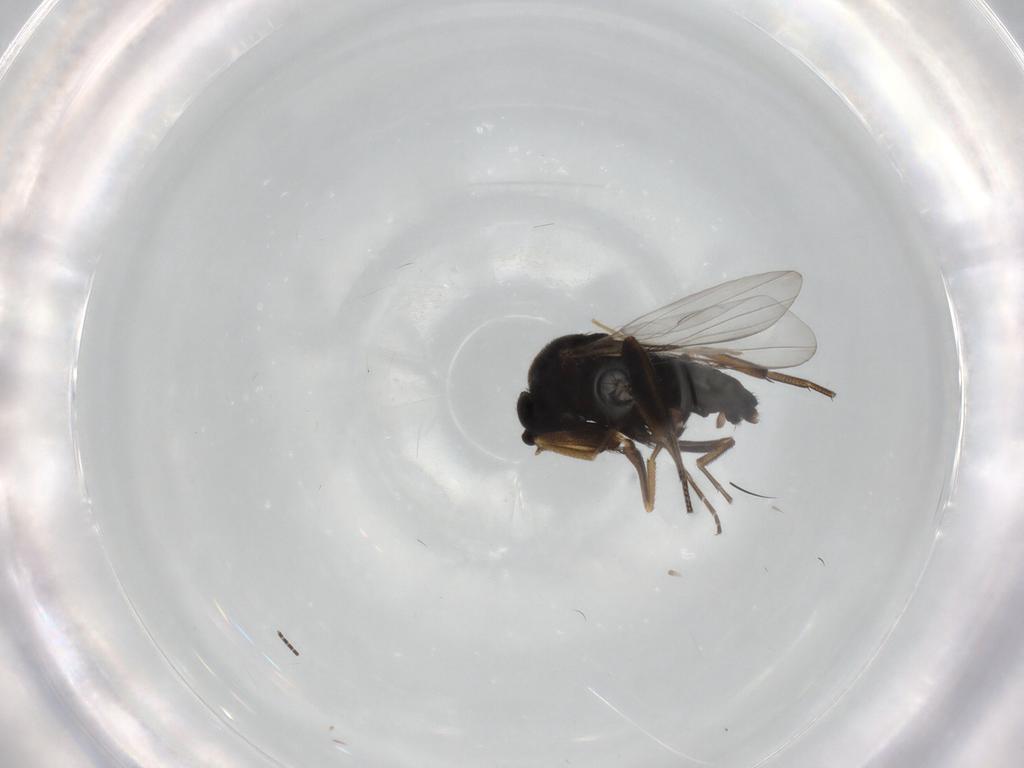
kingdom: Animalia
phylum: Arthropoda
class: Insecta
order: Diptera
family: Phoridae
